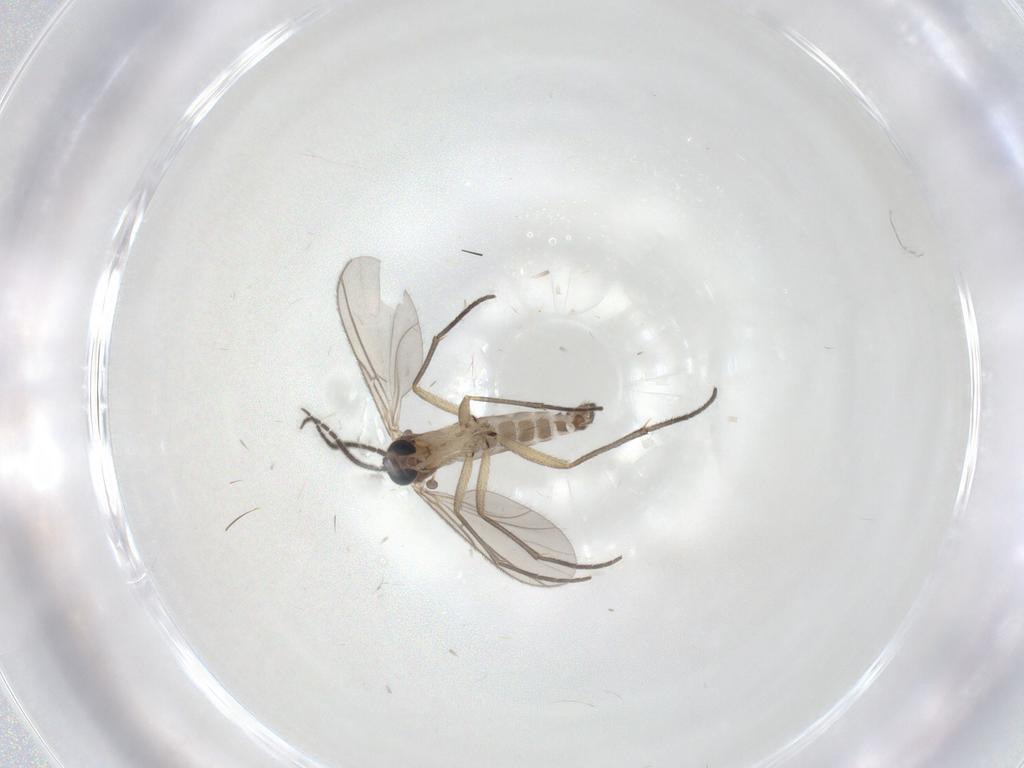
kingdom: Animalia
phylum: Arthropoda
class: Insecta
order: Diptera
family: Sciaridae
